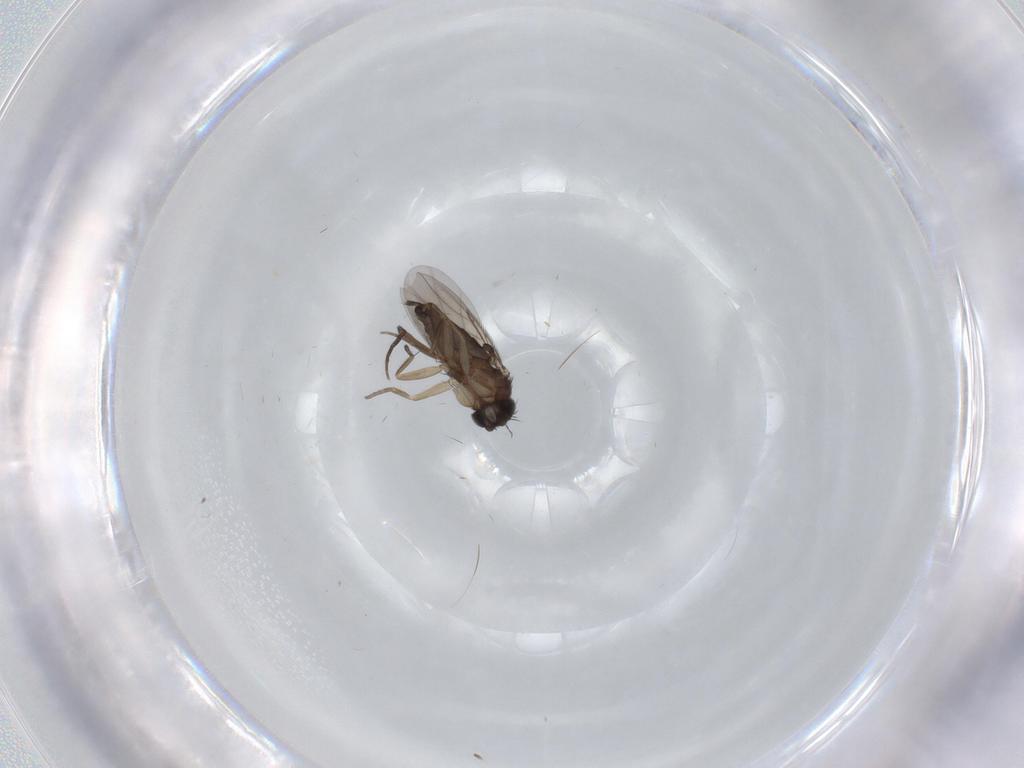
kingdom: Animalia
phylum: Arthropoda
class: Insecta
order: Diptera
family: Phoridae
